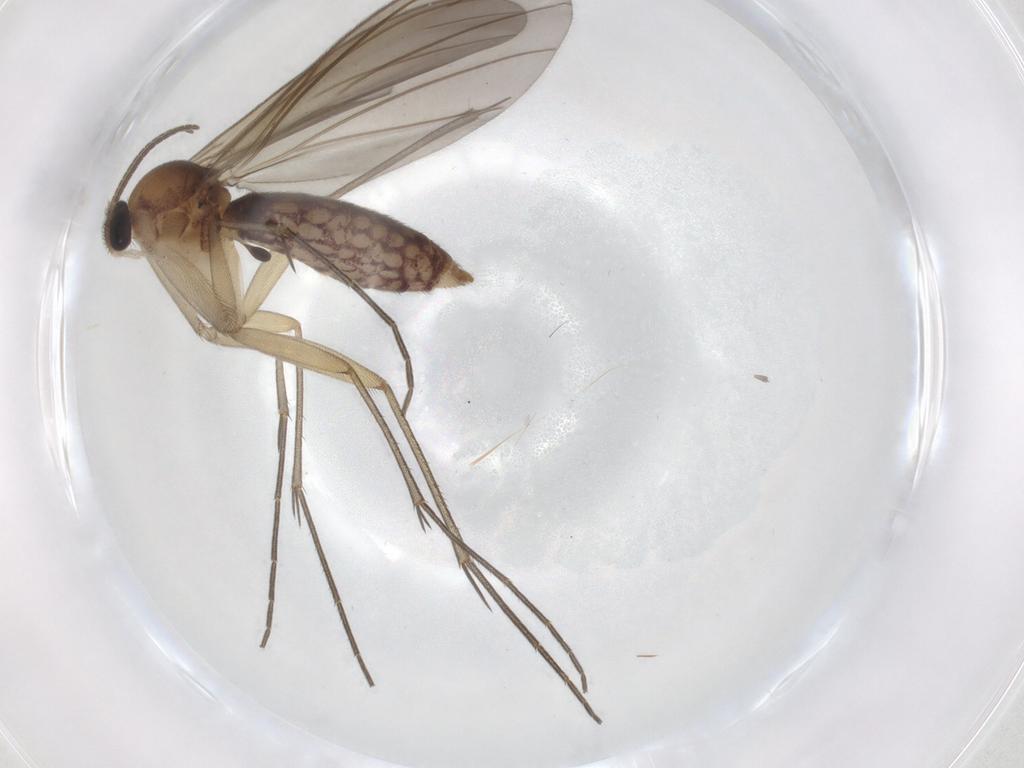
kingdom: Animalia
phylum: Arthropoda
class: Insecta
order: Diptera
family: Mycetophilidae
